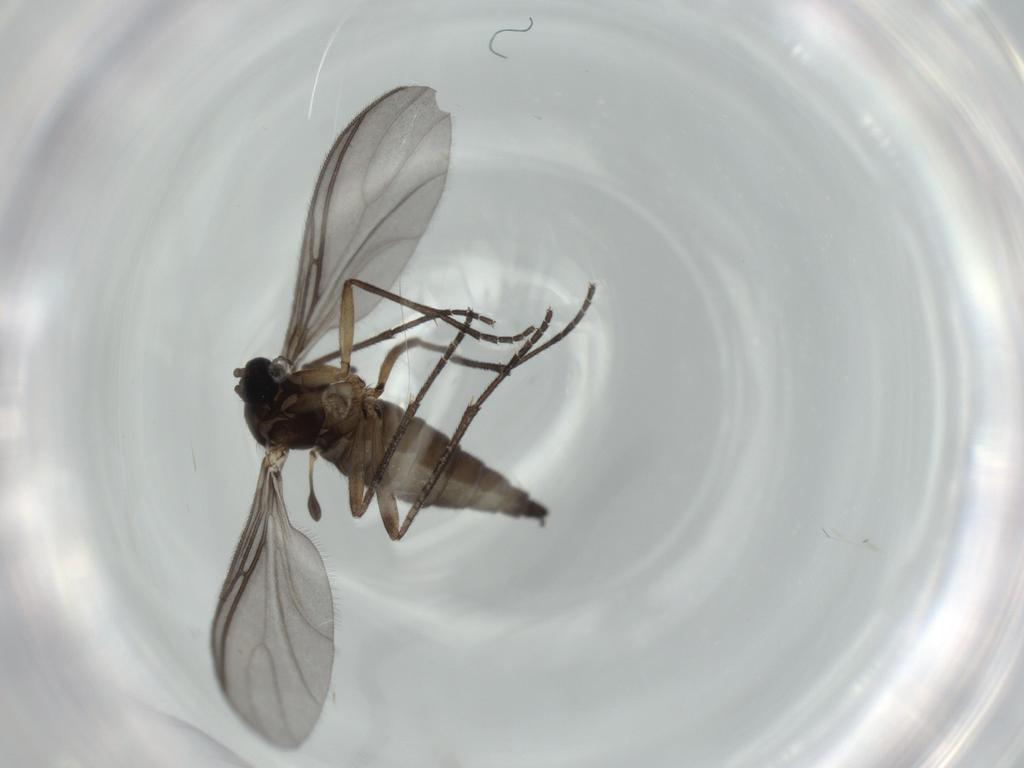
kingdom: Animalia
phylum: Arthropoda
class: Insecta
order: Diptera
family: Sciaridae
